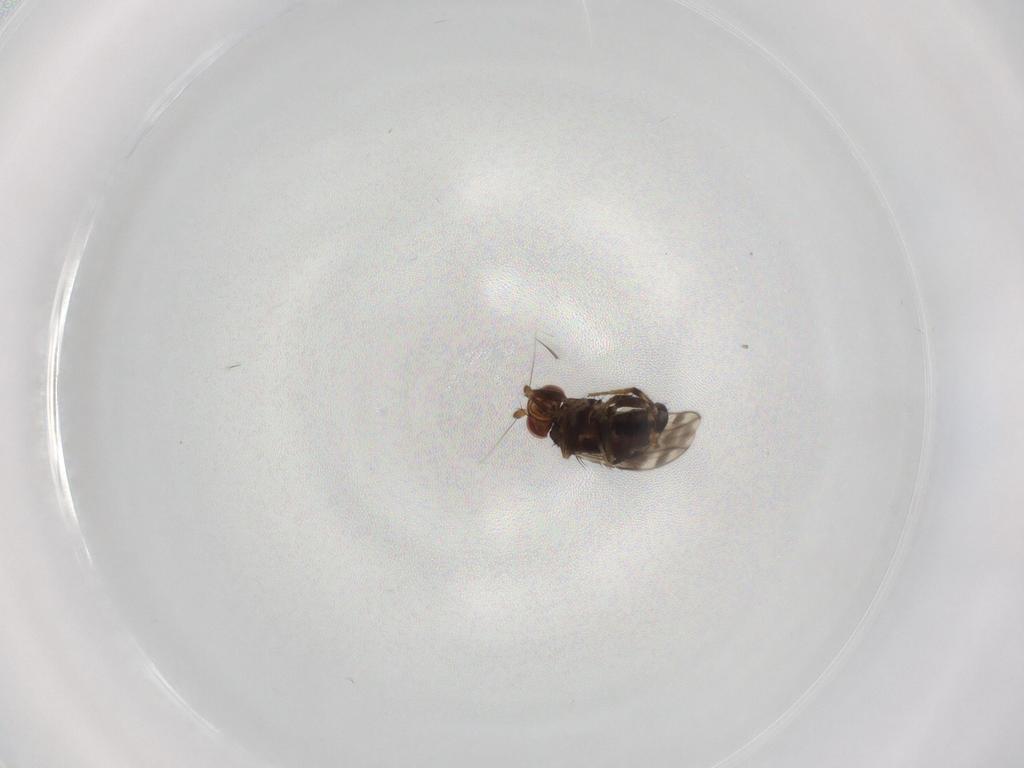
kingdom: Animalia
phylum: Arthropoda
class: Insecta
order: Diptera
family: Sphaeroceridae
